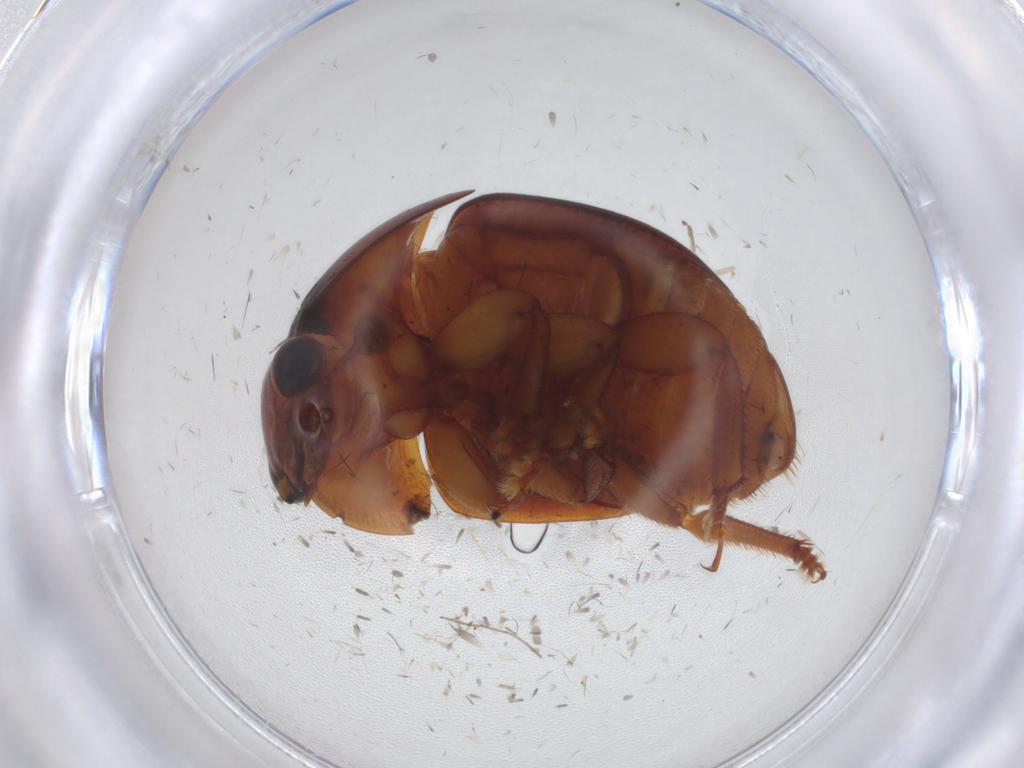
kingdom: Animalia
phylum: Arthropoda
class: Insecta
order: Coleoptera
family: Nitidulidae
